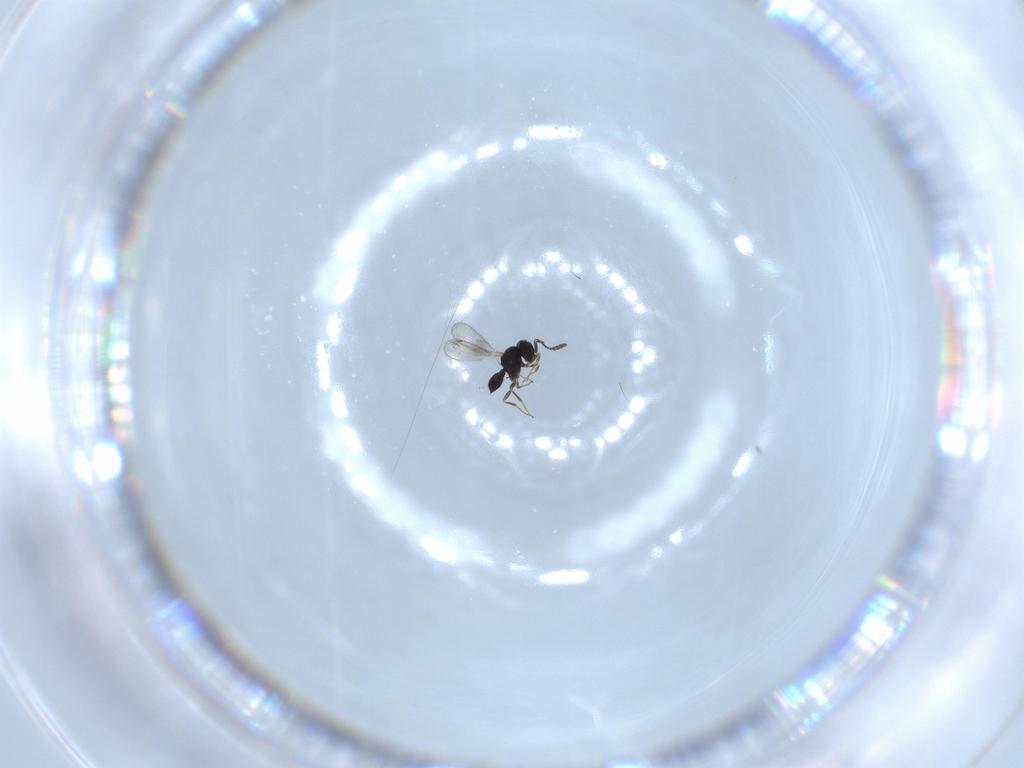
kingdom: Animalia
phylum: Arthropoda
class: Insecta
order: Hymenoptera
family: Scelionidae
